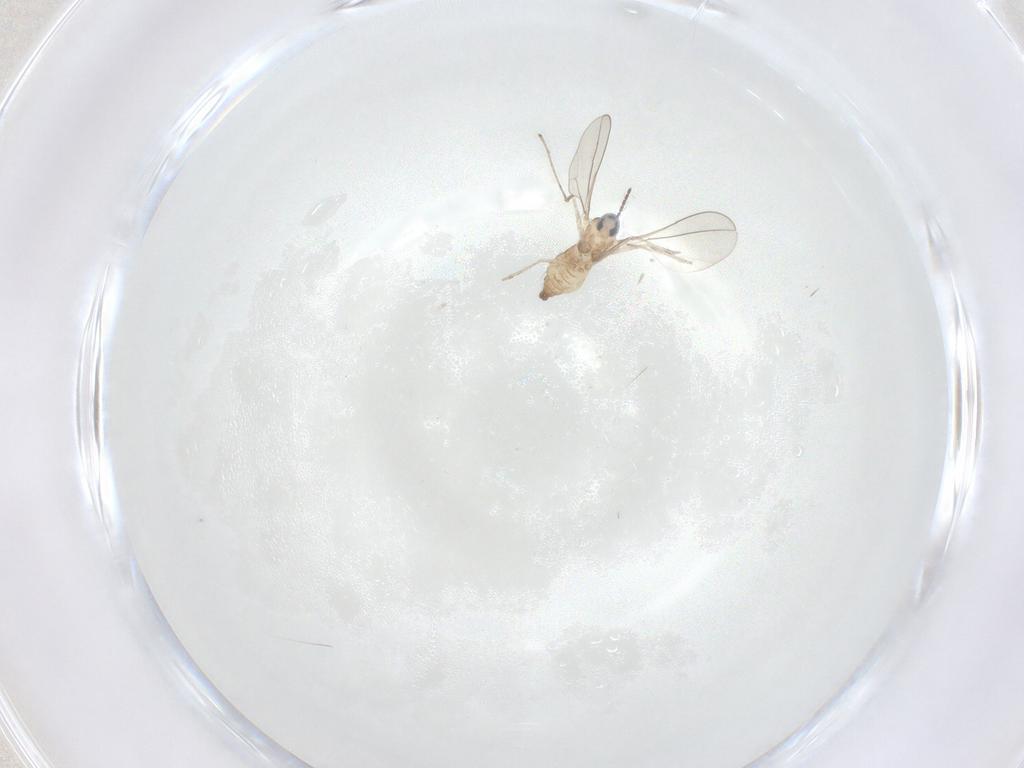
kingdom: Animalia
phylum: Arthropoda
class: Insecta
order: Diptera
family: Cecidomyiidae
